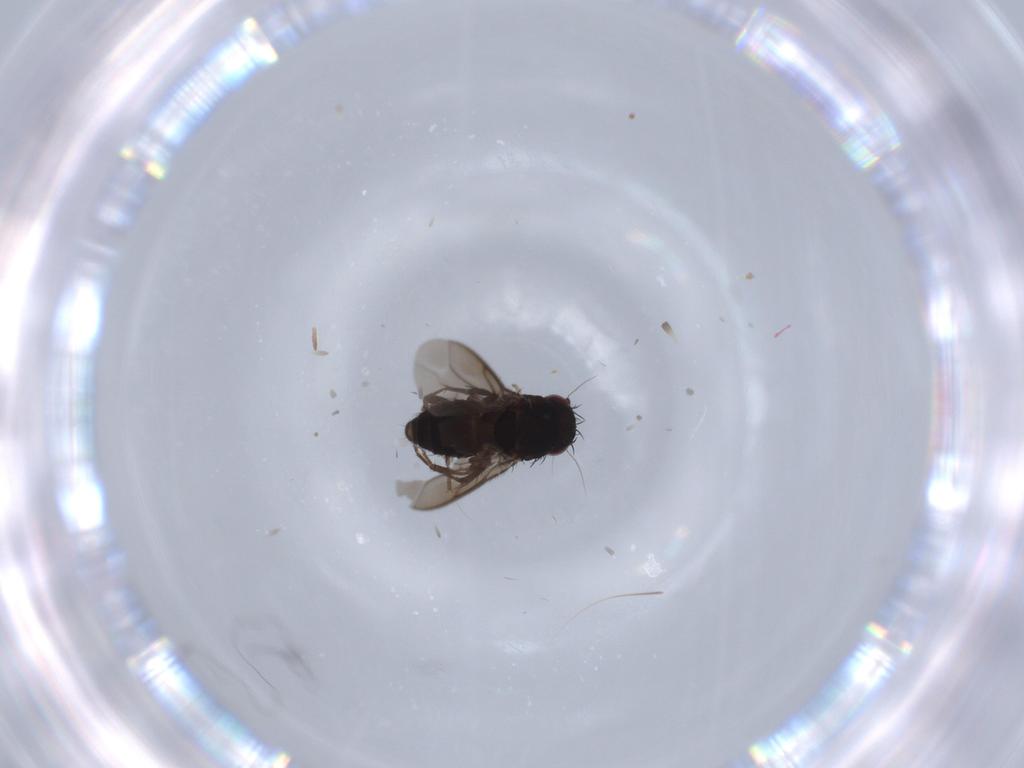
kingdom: Animalia
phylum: Arthropoda
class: Insecta
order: Diptera
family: Sphaeroceridae
